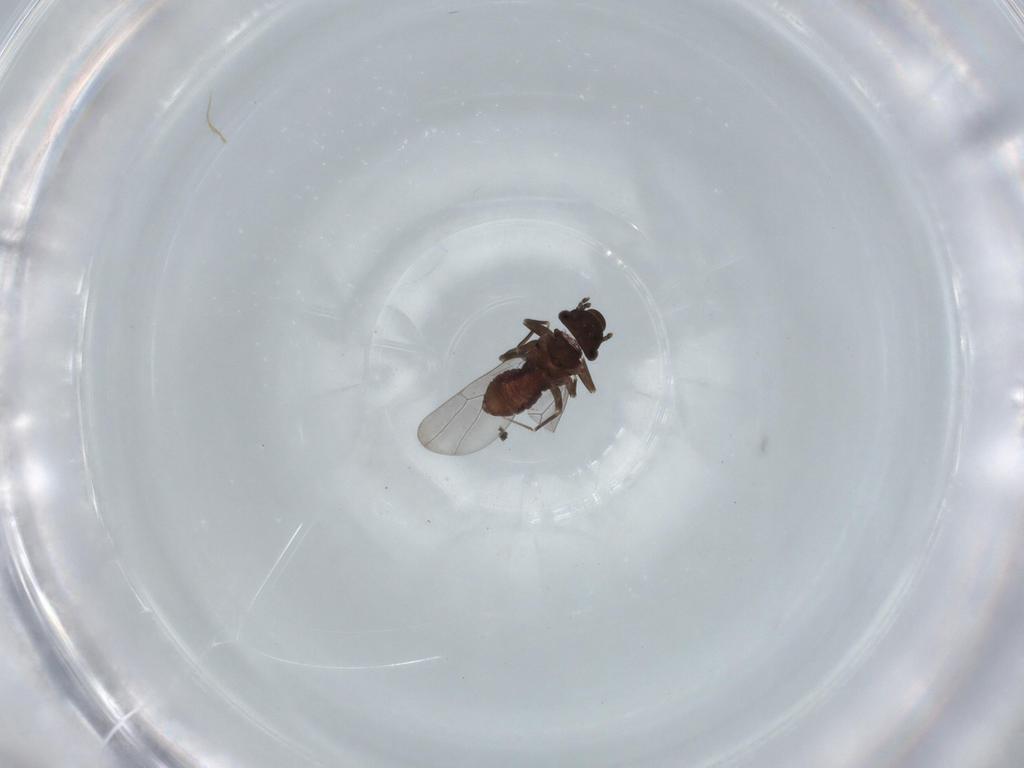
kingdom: Animalia
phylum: Arthropoda
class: Insecta
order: Psocodea
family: Lepidopsocidae
